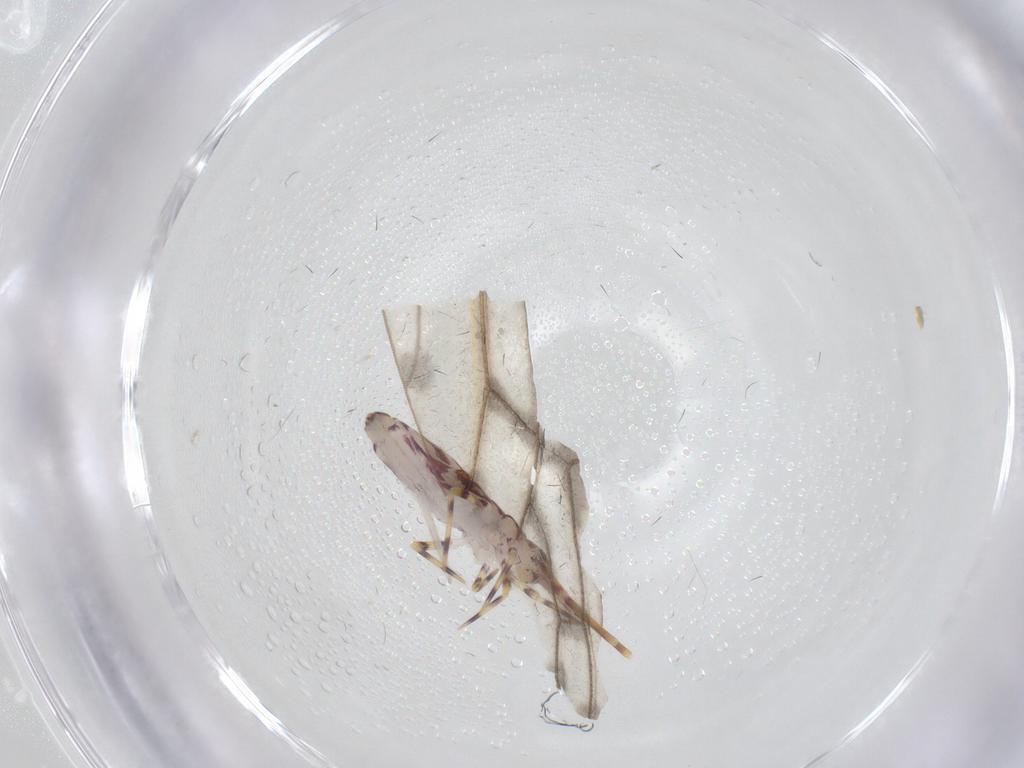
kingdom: Animalia
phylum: Arthropoda
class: Collembola
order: Entomobryomorpha
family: Entomobryidae
